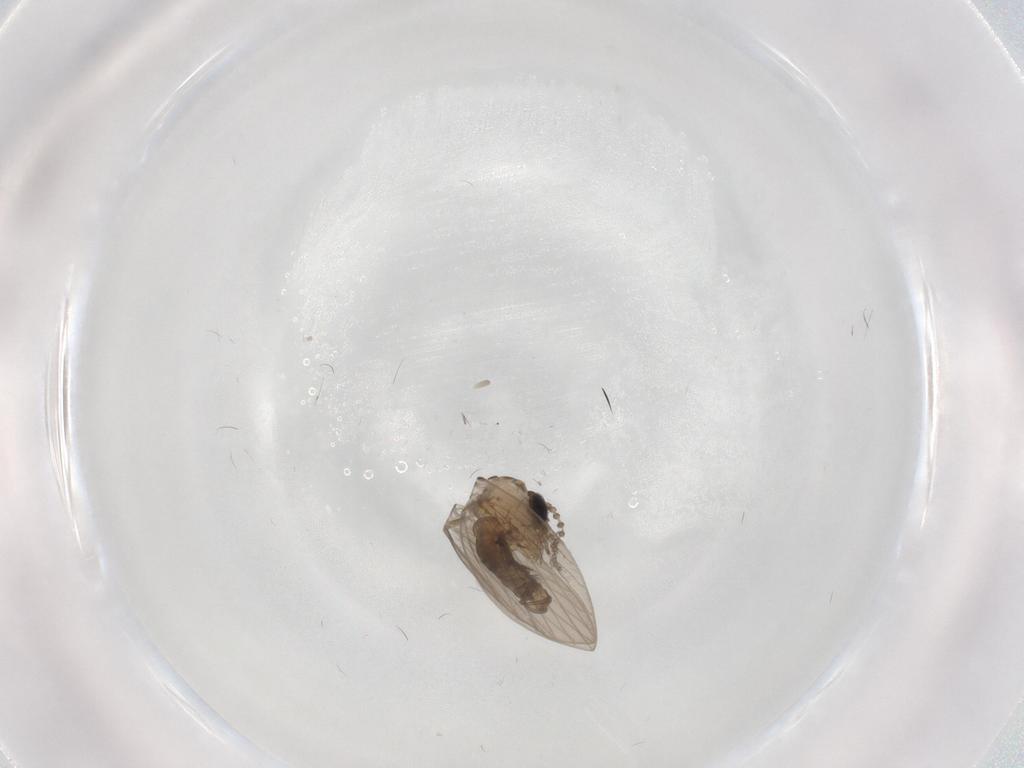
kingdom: Animalia
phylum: Arthropoda
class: Insecta
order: Diptera
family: Psychodidae
